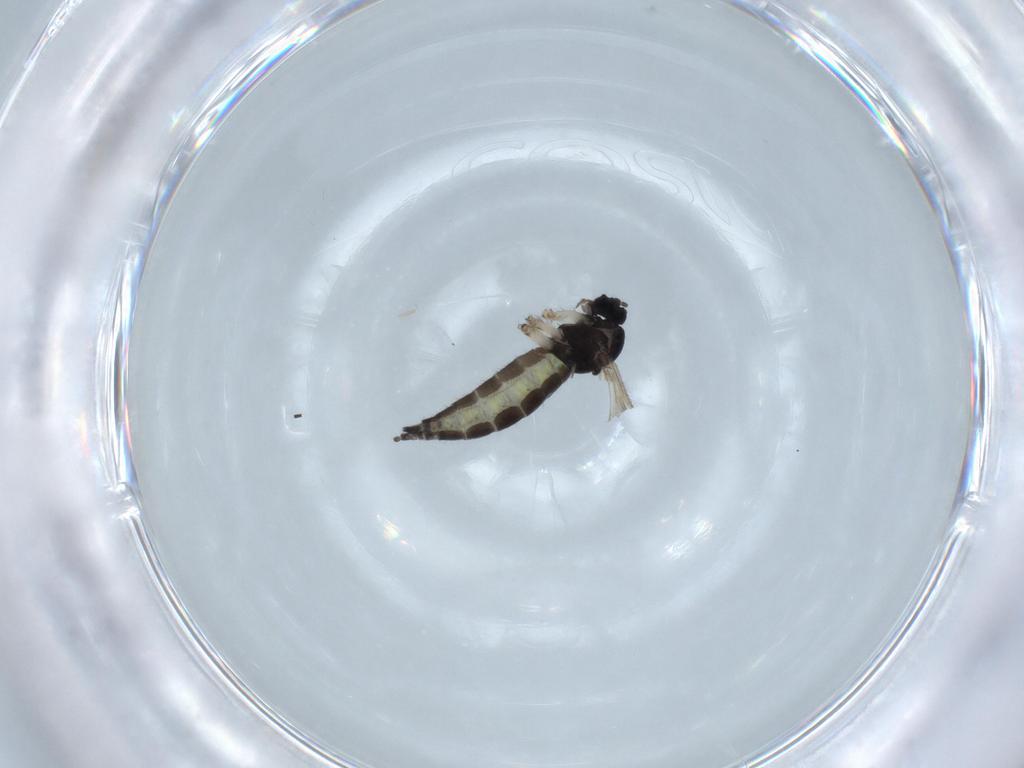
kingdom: Animalia
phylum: Arthropoda
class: Insecta
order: Diptera
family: Sciaridae
